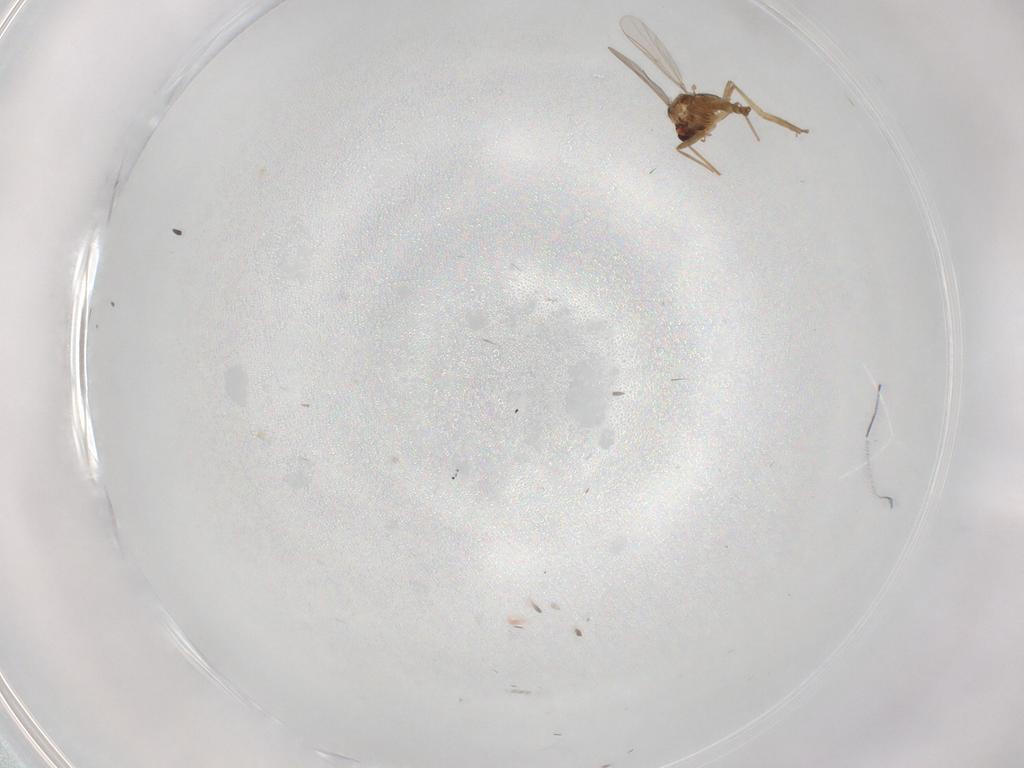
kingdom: Animalia
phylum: Arthropoda
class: Insecta
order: Diptera
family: Chironomidae
